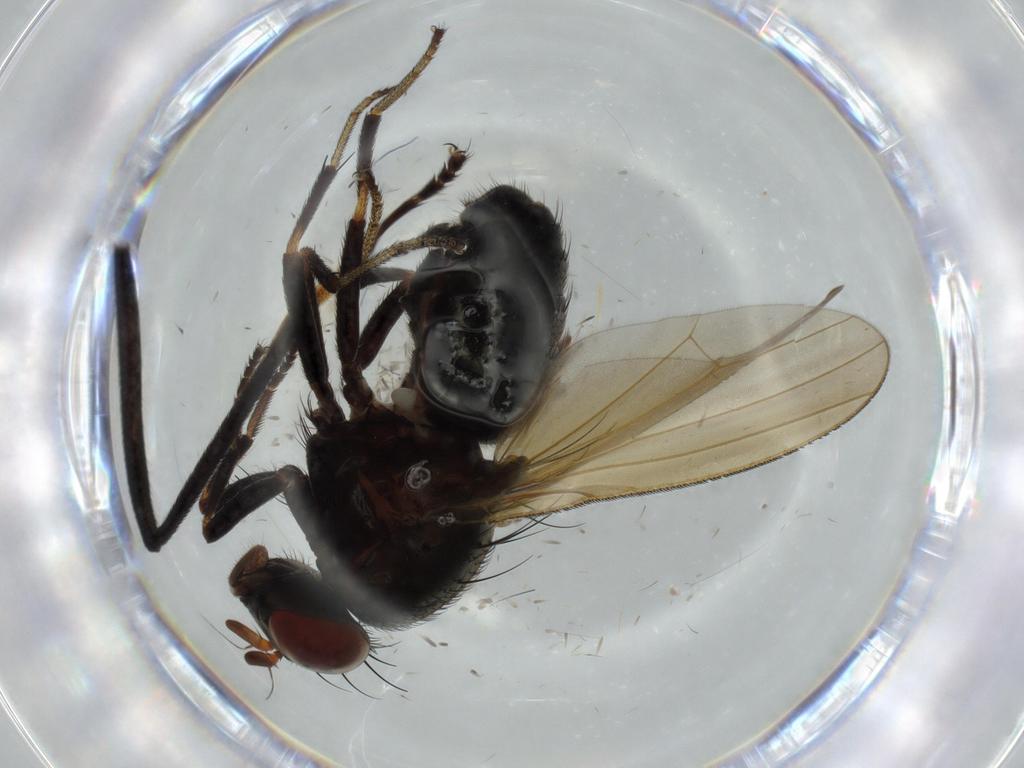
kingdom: Animalia
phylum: Arthropoda
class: Insecta
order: Diptera
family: Micropezidae
